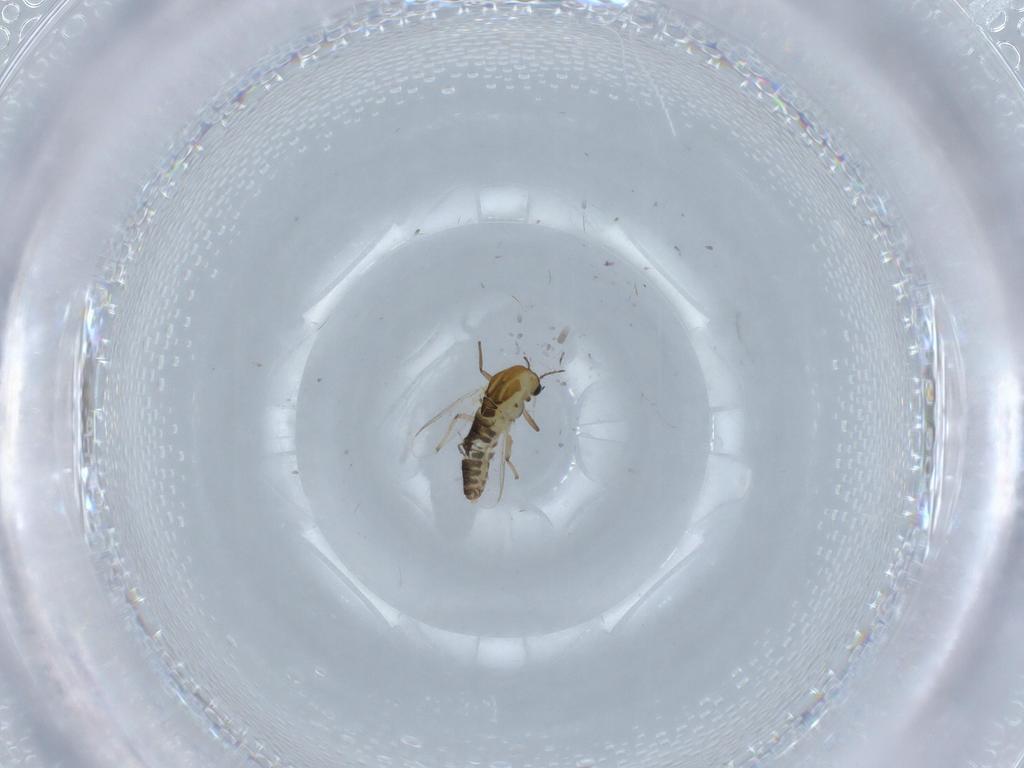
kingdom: Animalia
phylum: Arthropoda
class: Insecta
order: Diptera
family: Chironomidae
